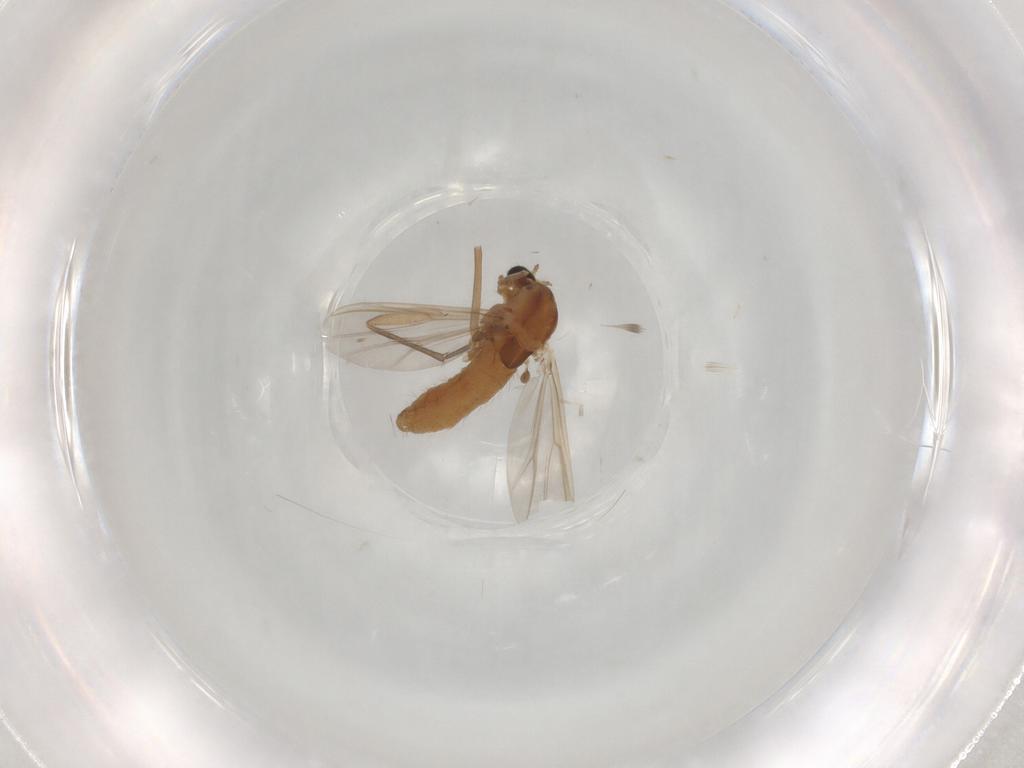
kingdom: Animalia
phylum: Arthropoda
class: Insecta
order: Diptera
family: Chironomidae
